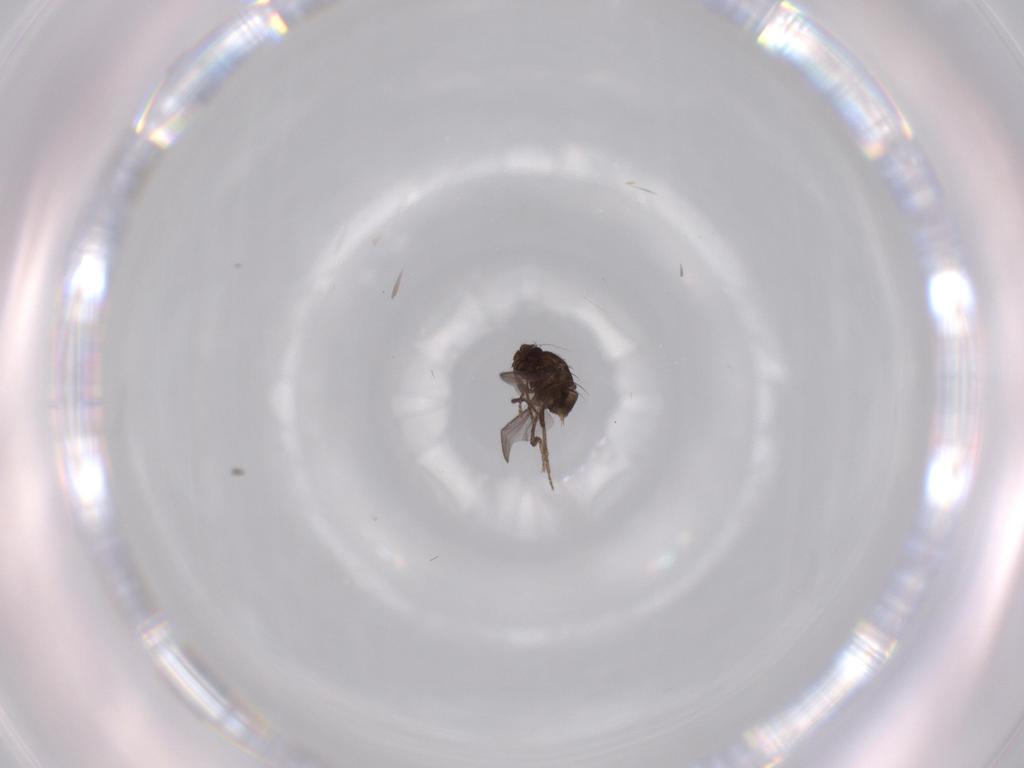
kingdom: Animalia
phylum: Arthropoda
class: Insecta
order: Diptera
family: Sphaeroceridae
